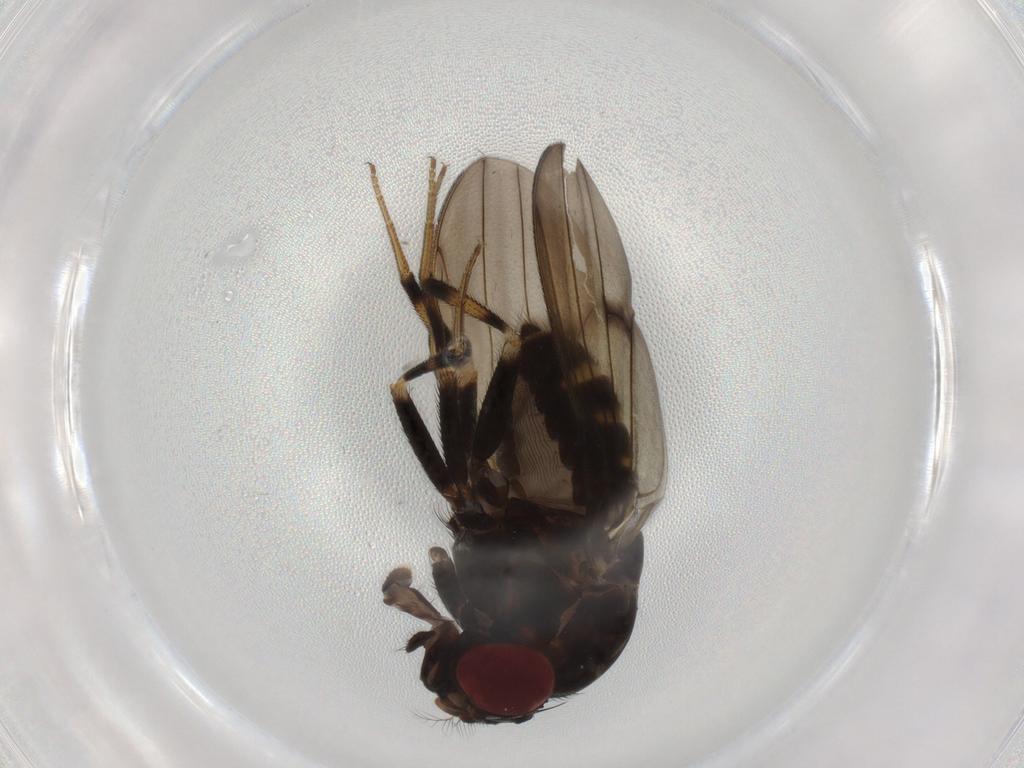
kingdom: Animalia
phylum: Arthropoda
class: Insecta
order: Diptera
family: Drosophilidae
